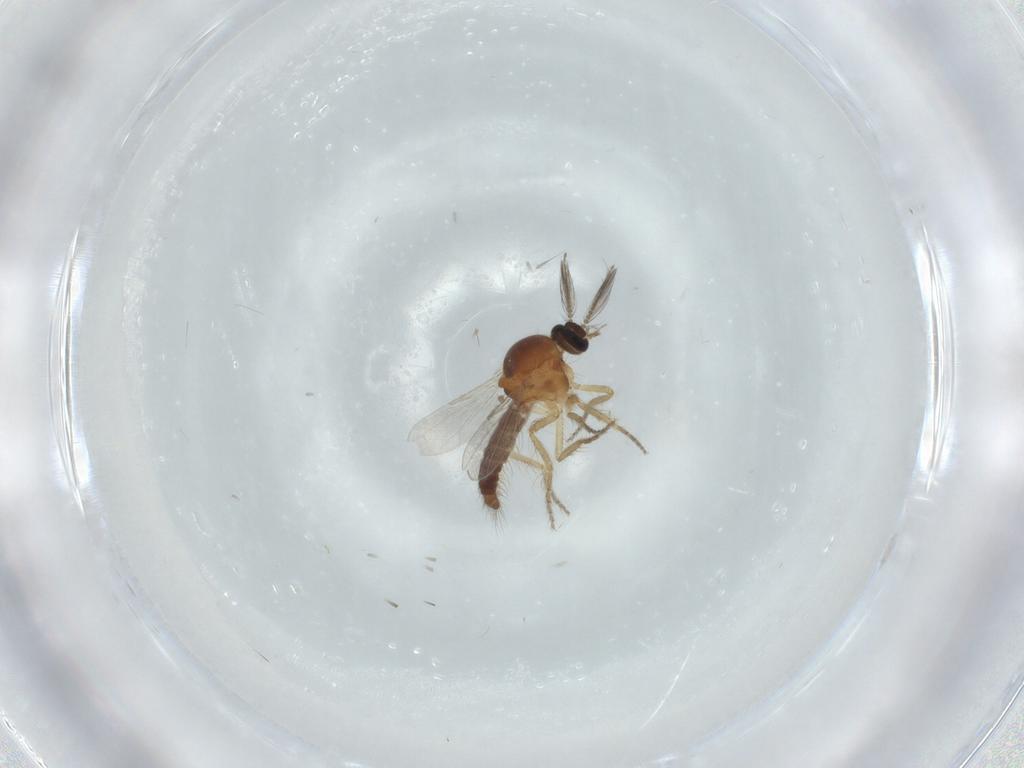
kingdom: Animalia
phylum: Arthropoda
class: Insecta
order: Diptera
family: Ceratopogonidae
